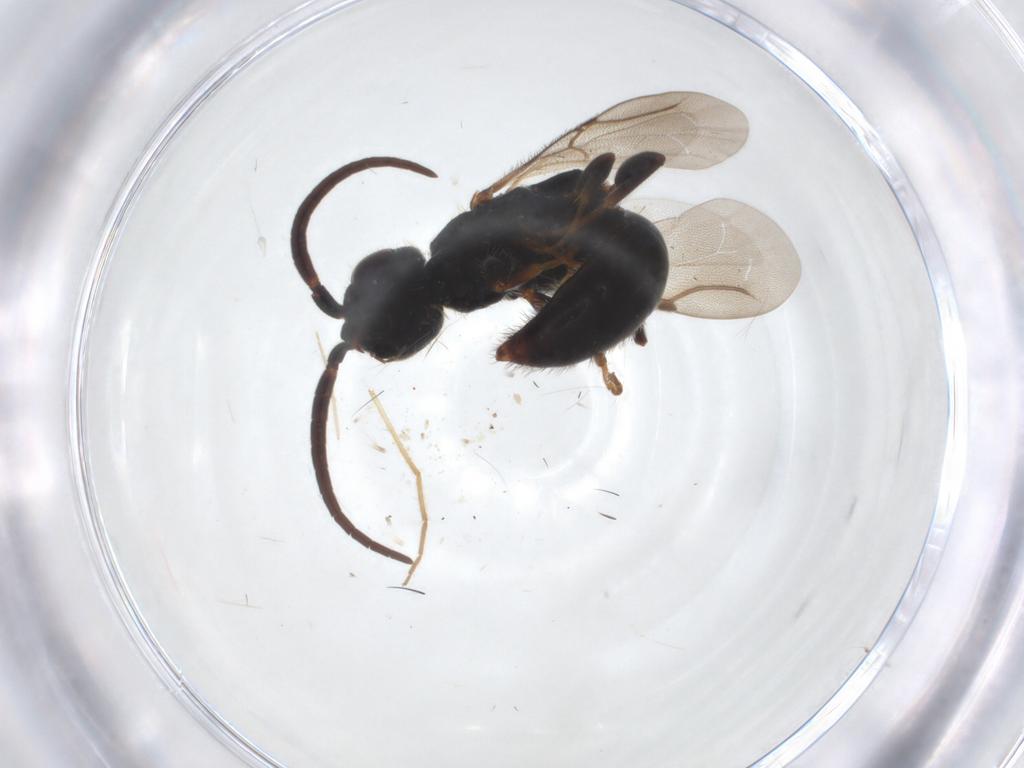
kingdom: Animalia
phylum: Arthropoda
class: Insecta
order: Hymenoptera
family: Bethylidae
